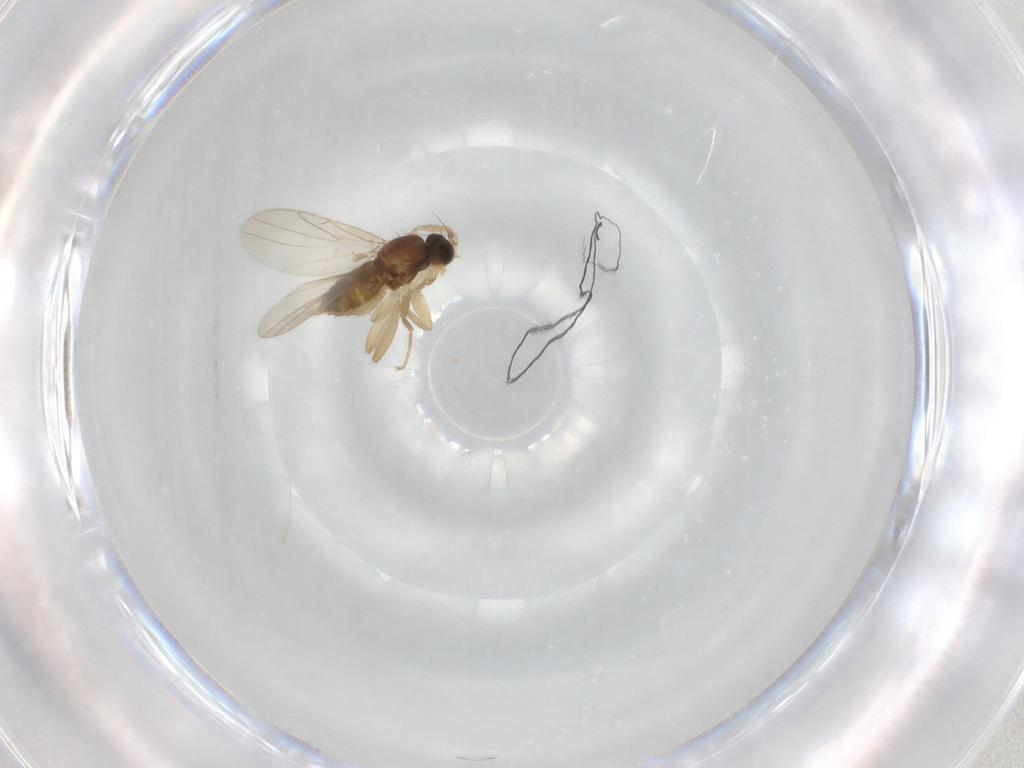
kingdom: Animalia
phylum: Arthropoda
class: Insecta
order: Diptera
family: Hybotidae
